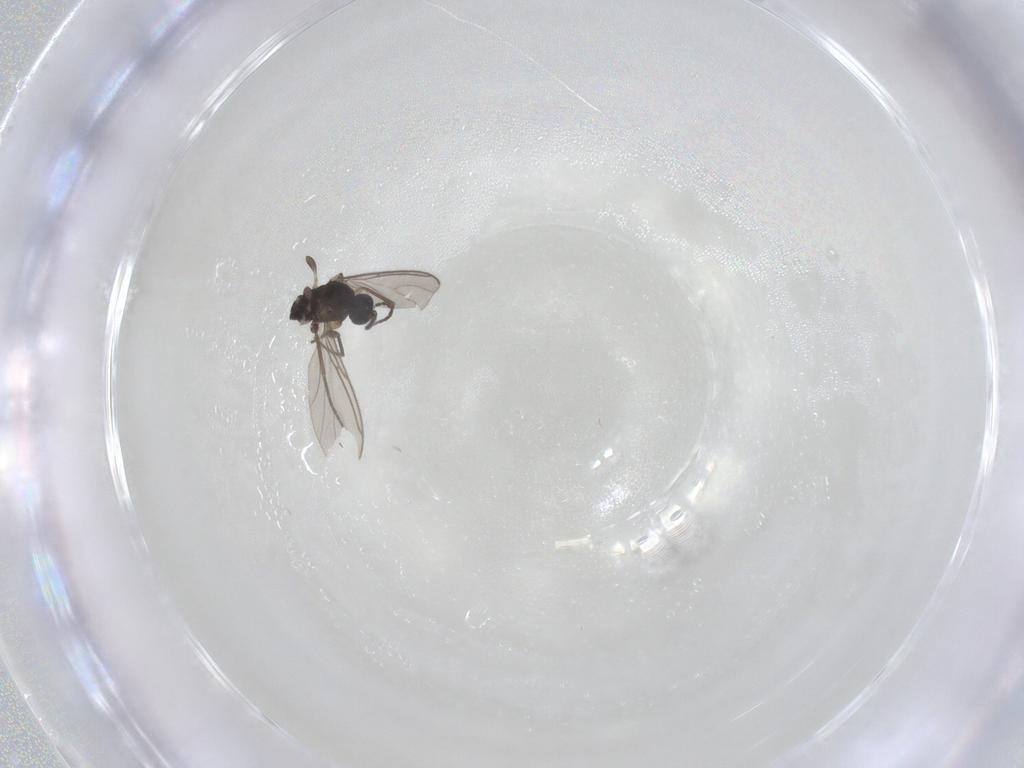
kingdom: Animalia
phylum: Arthropoda
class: Insecta
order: Diptera
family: Sciaridae
